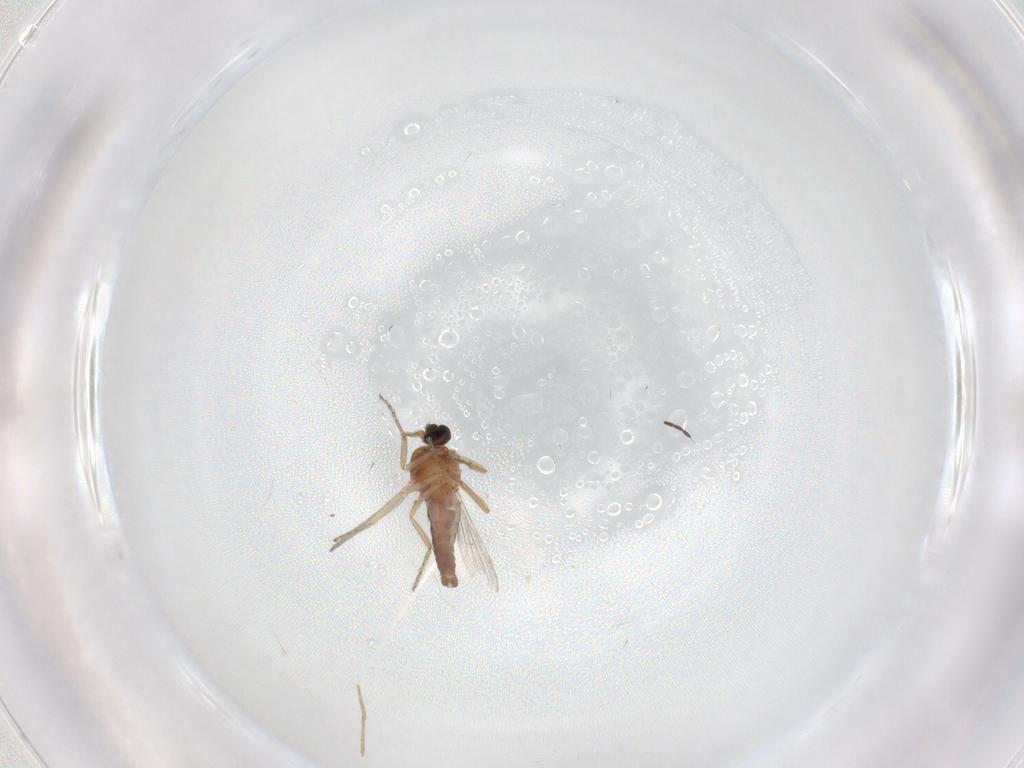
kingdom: Animalia
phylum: Arthropoda
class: Insecta
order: Diptera
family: Ceratopogonidae
